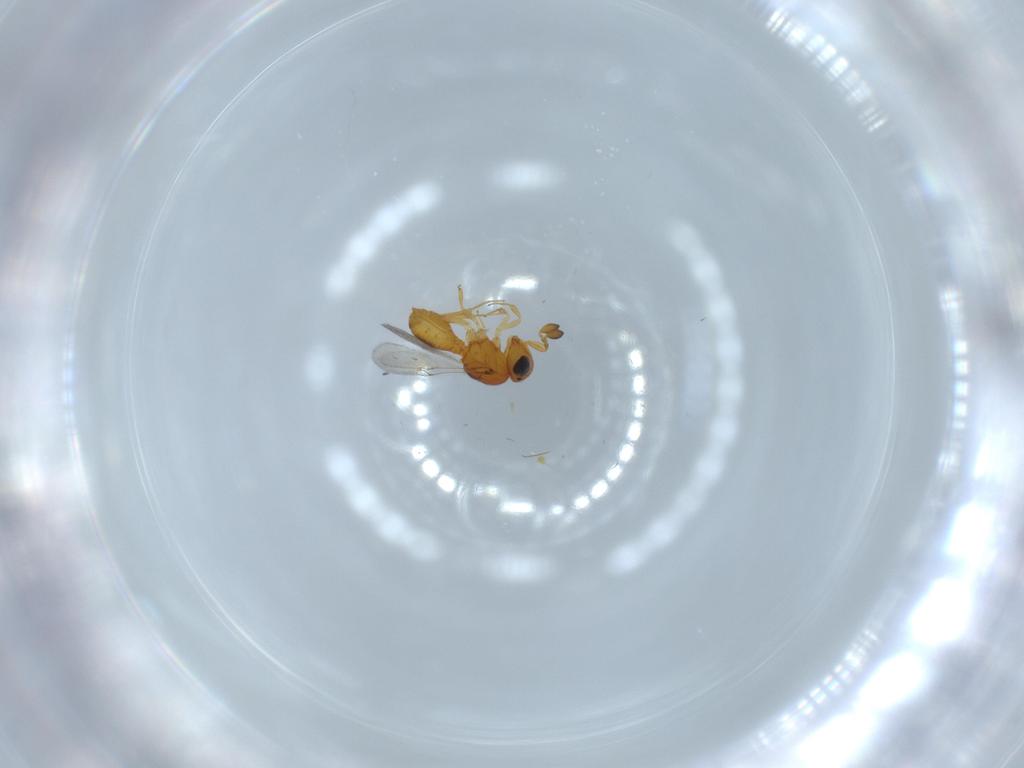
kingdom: Animalia
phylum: Arthropoda
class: Insecta
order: Hymenoptera
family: Scelionidae
